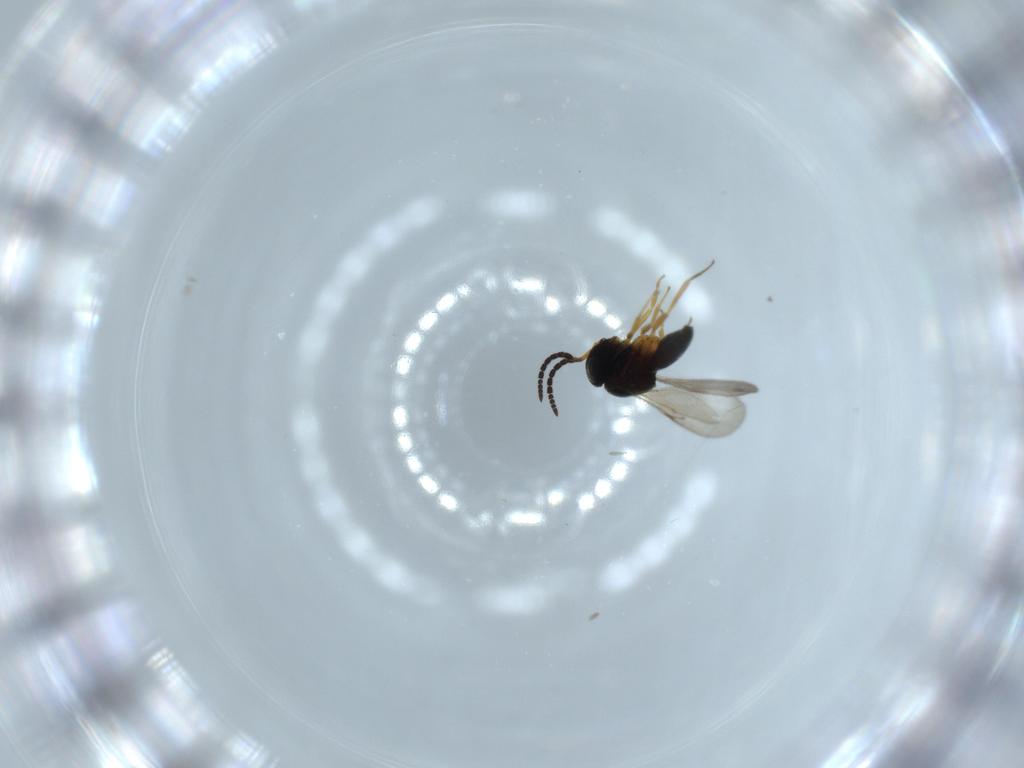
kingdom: Animalia
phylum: Arthropoda
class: Insecta
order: Coleoptera
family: Curculionidae
